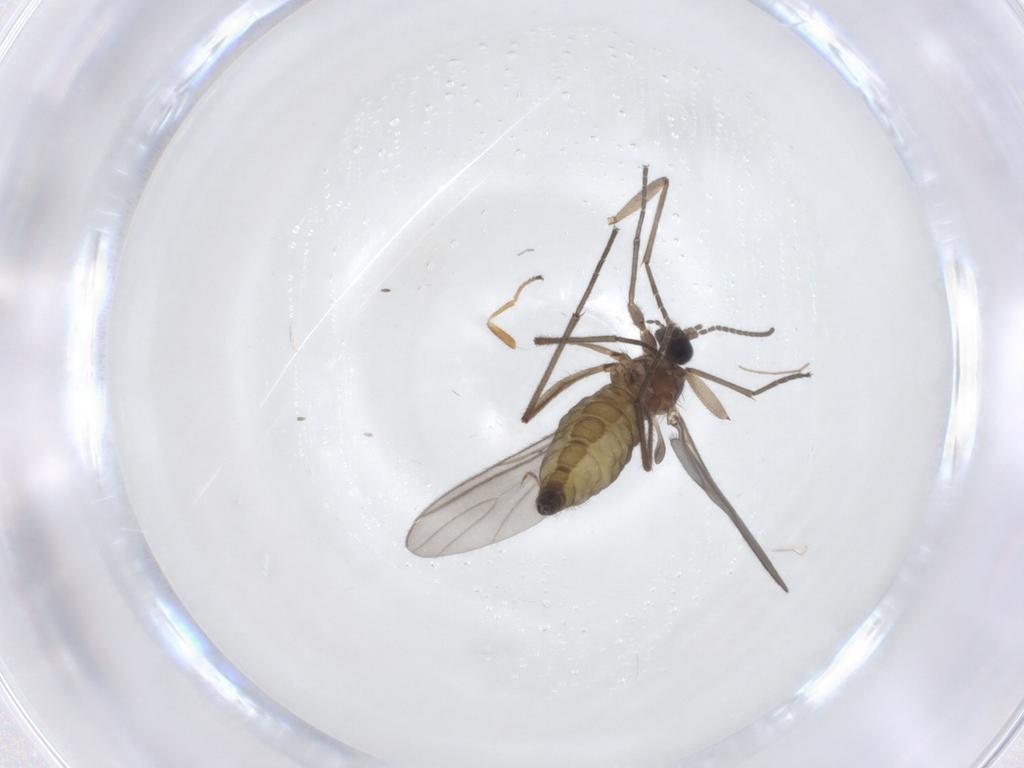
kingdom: Animalia
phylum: Arthropoda
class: Insecta
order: Diptera
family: Sciaridae
